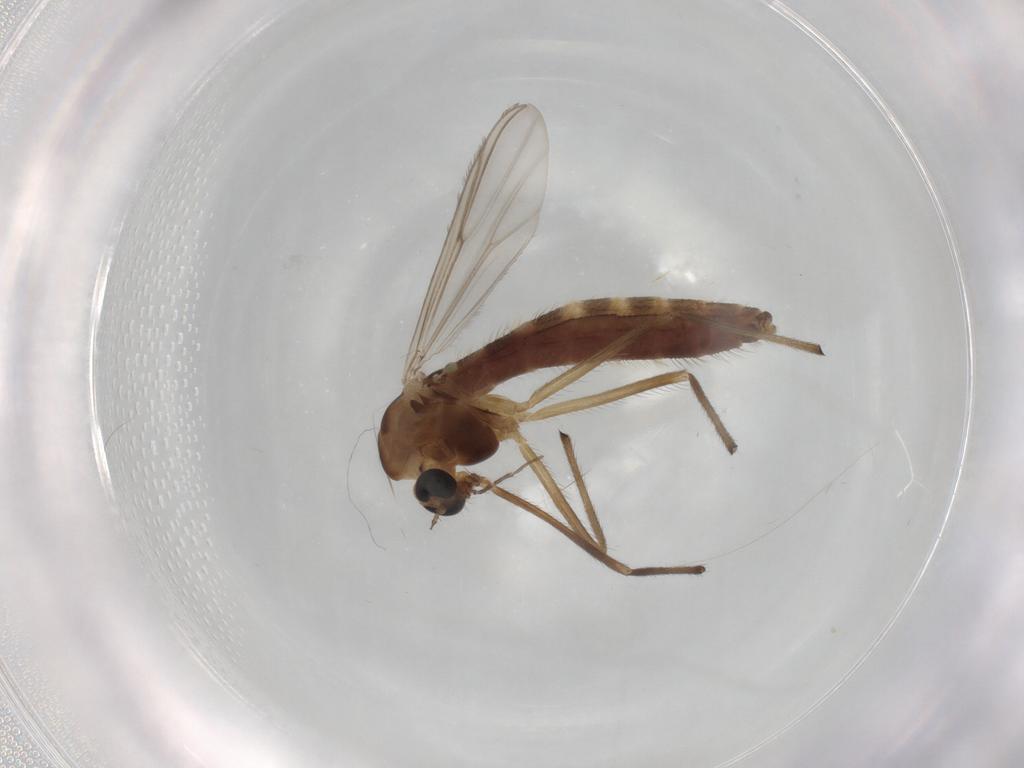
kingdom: Animalia
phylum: Arthropoda
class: Insecta
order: Diptera
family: Chironomidae
